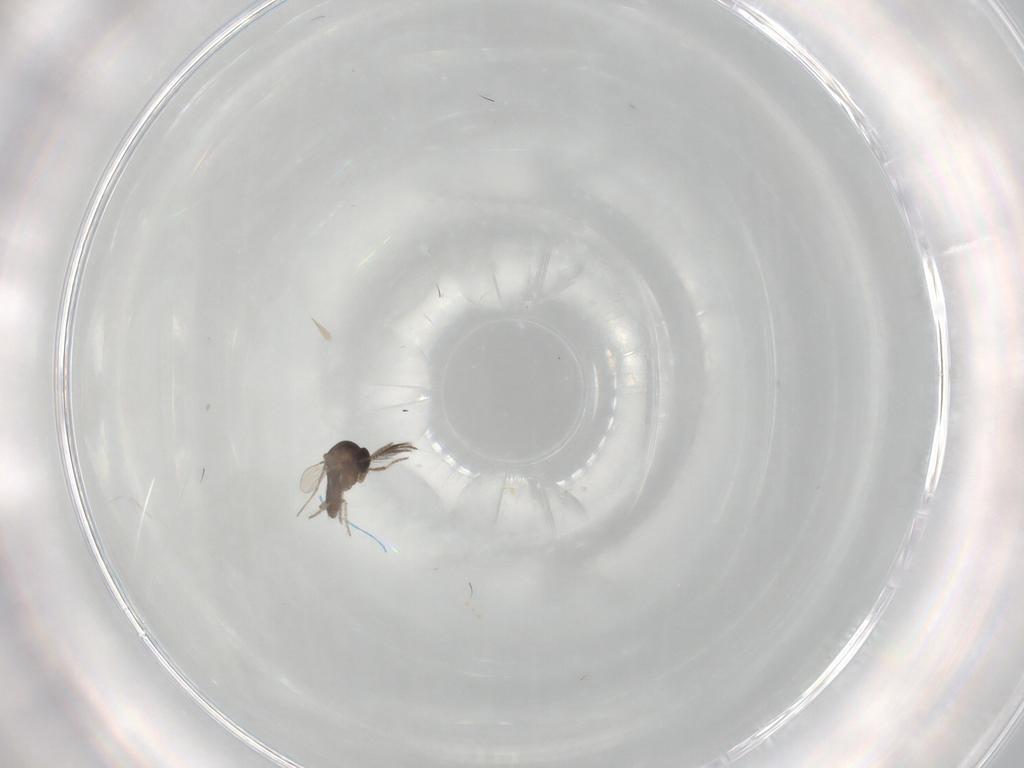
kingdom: Animalia
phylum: Arthropoda
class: Insecta
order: Diptera
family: Ceratopogonidae
